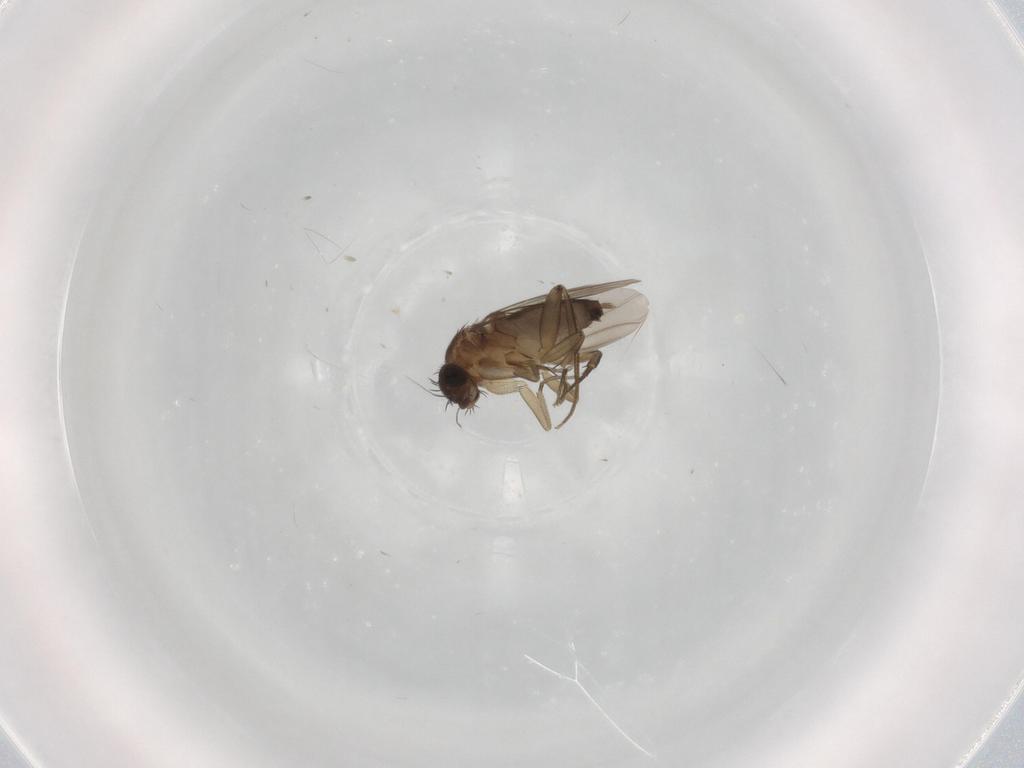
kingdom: Animalia
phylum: Arthropoda
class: Insecta
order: Diptera
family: Phoridae
